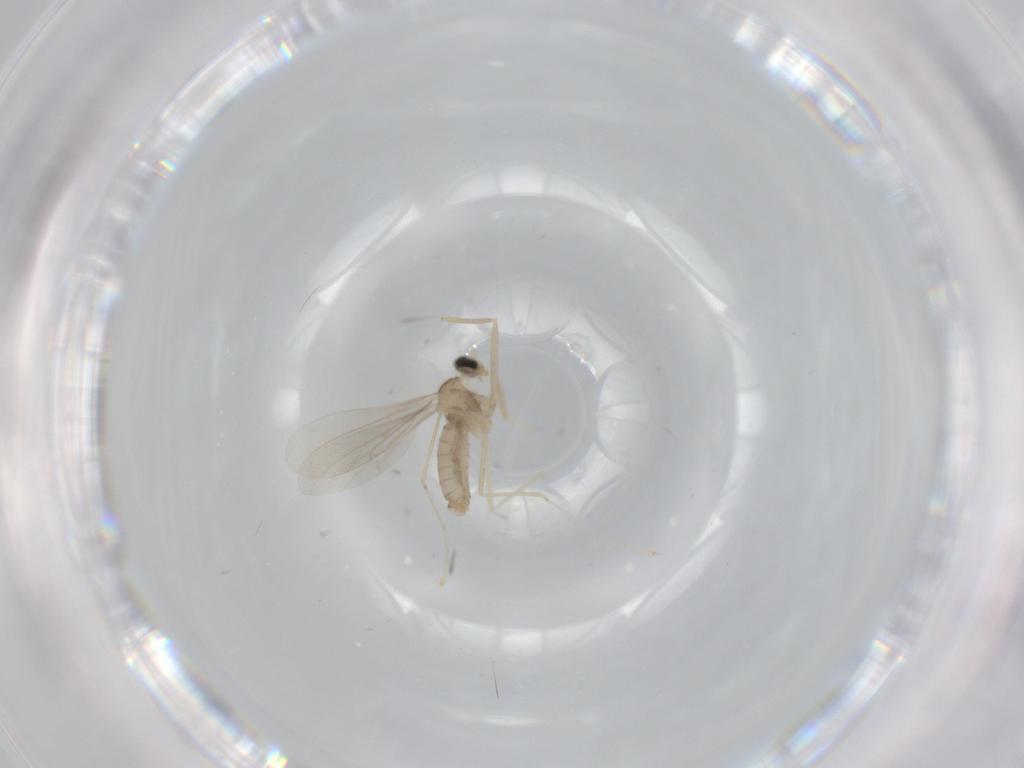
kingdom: Animalia
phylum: Arthropoda
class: Insecta
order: Diptera
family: Cecidomyiidae
